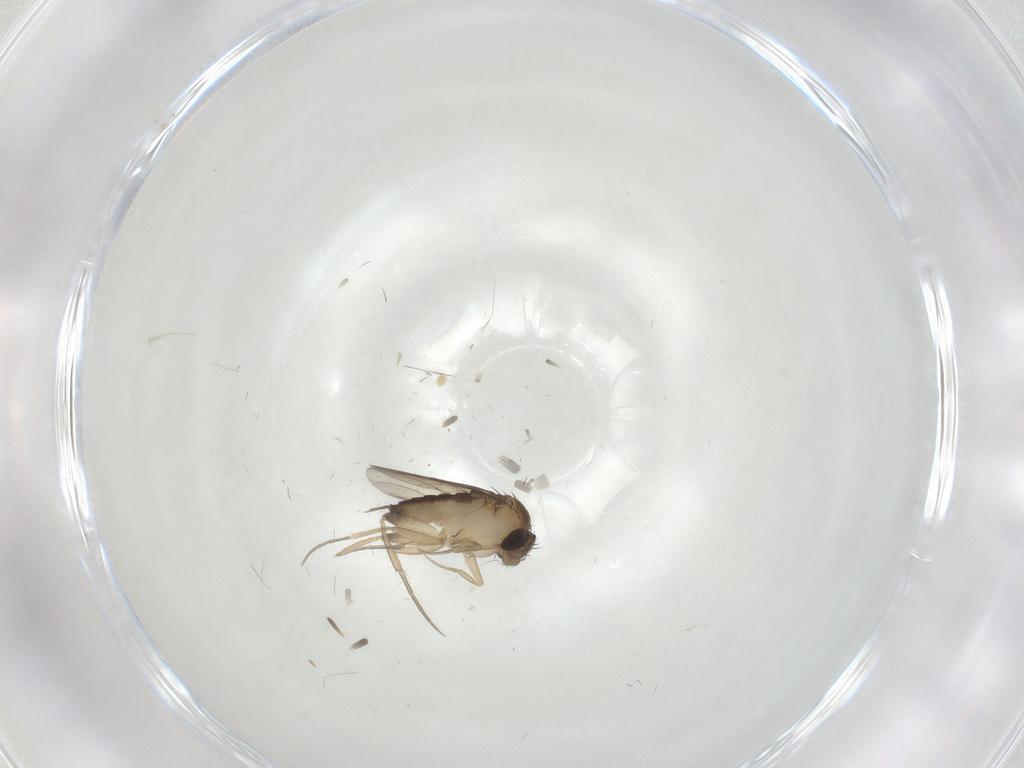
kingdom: Animalia
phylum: Arthropoda
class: Insecta
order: Diptera
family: Phoridae
